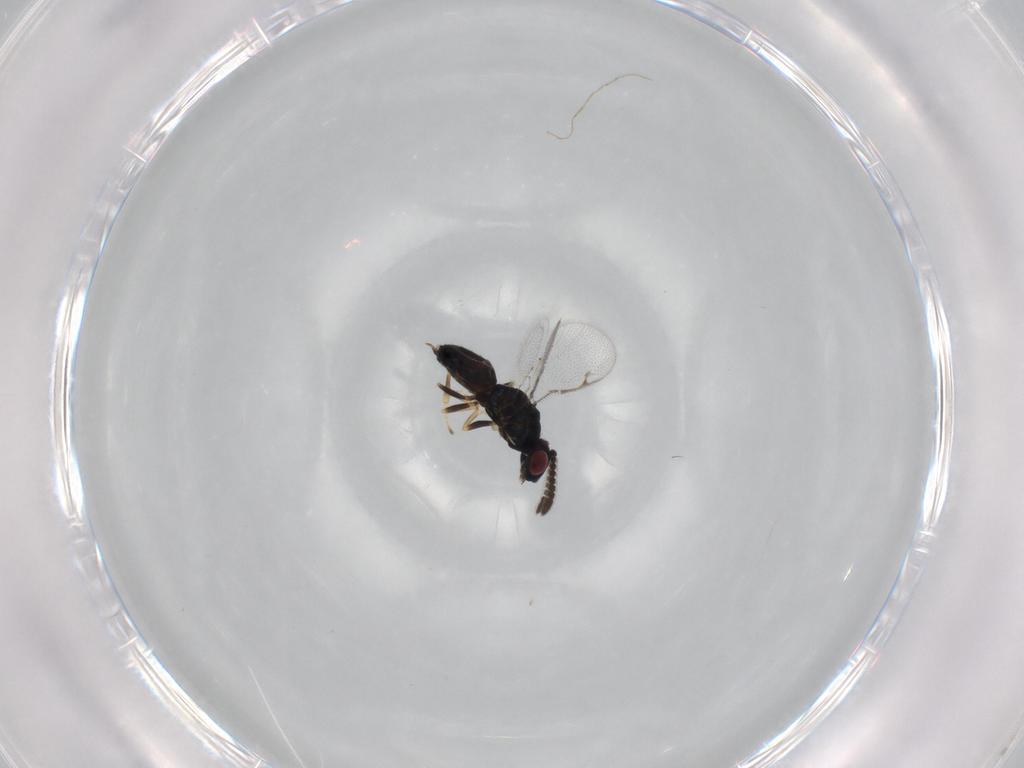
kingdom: Animalia
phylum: Arthropoda
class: Insecta
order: Hymenoptera
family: Pteromalidae
